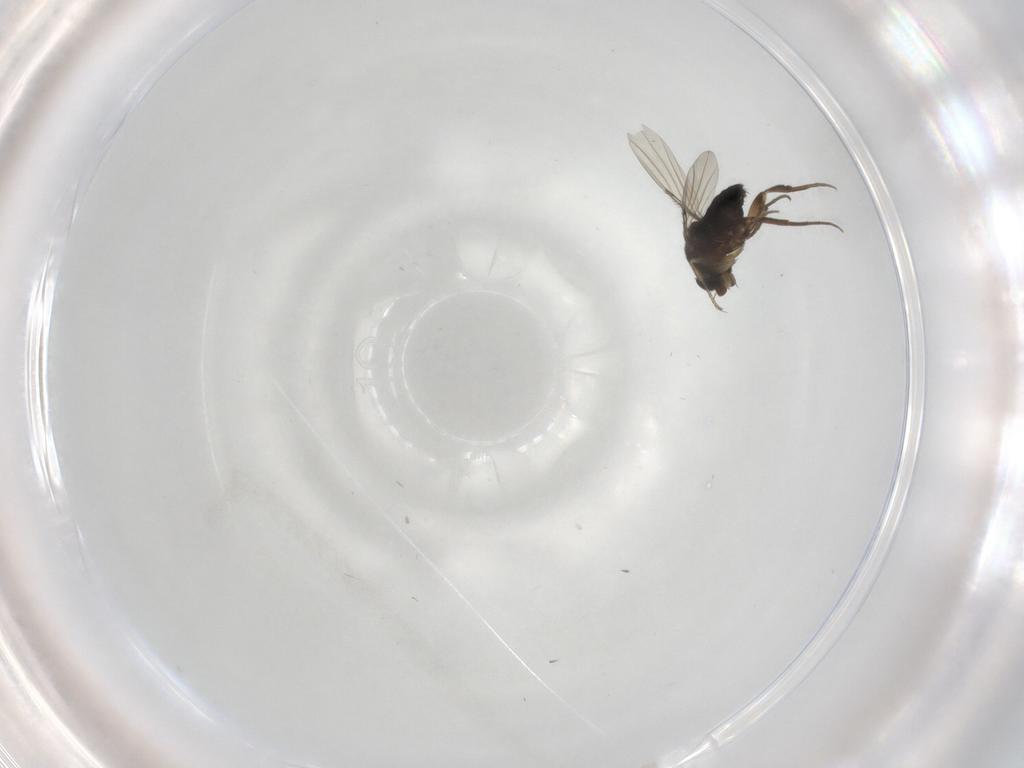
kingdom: Animalia
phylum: Arthropoda
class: Insecta
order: Diptera
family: Phoridae
